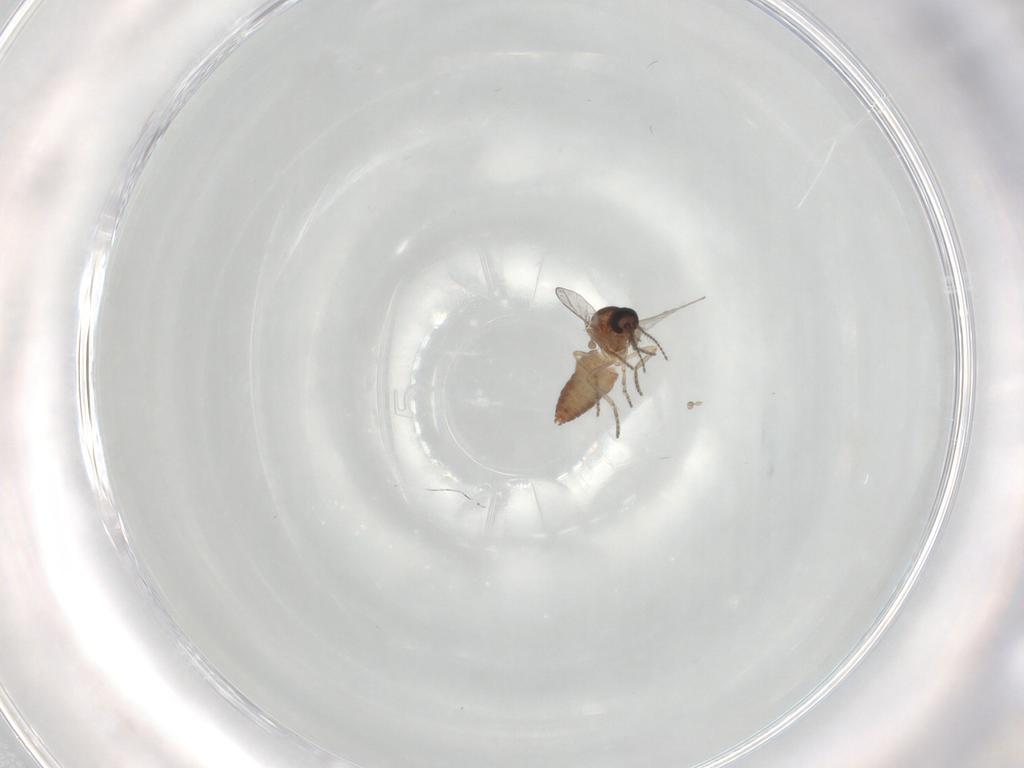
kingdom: Animalia
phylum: Arthropoda
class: Insecta
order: Diptera
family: Ceratopogonidae
